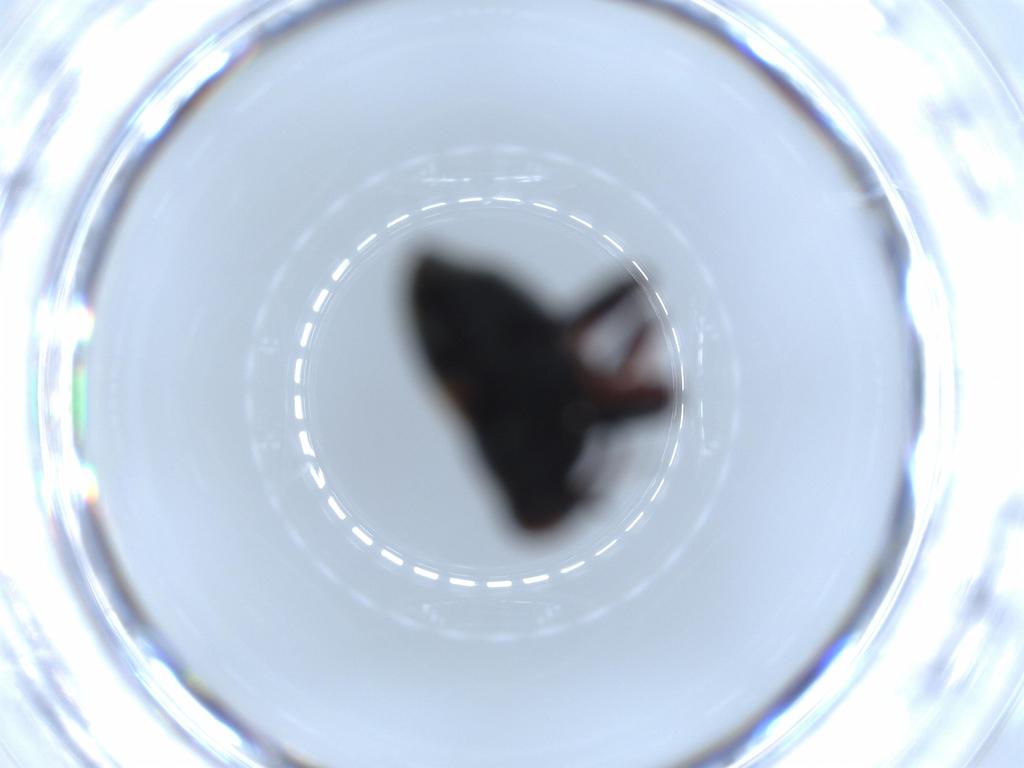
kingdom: Animalia
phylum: Arthropoda
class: Insecta
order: Coleoptera
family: Curculionidae
